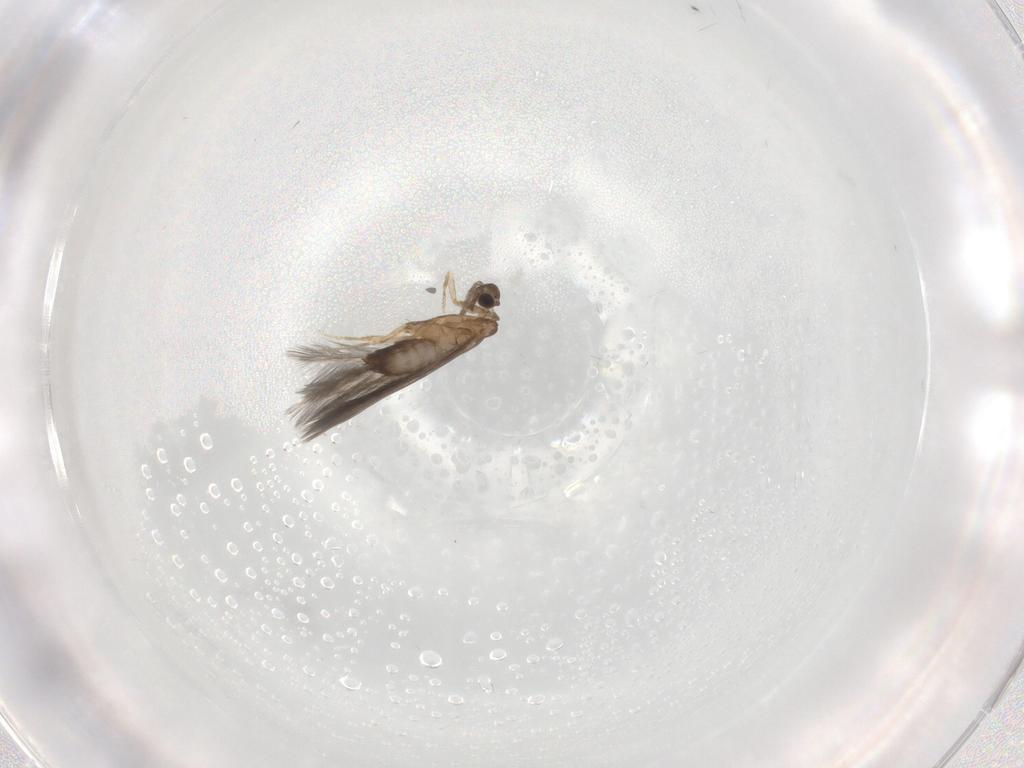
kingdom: Animalia
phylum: Arthropoda
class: Insecta
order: Trichoptera
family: Hydroptilidae
